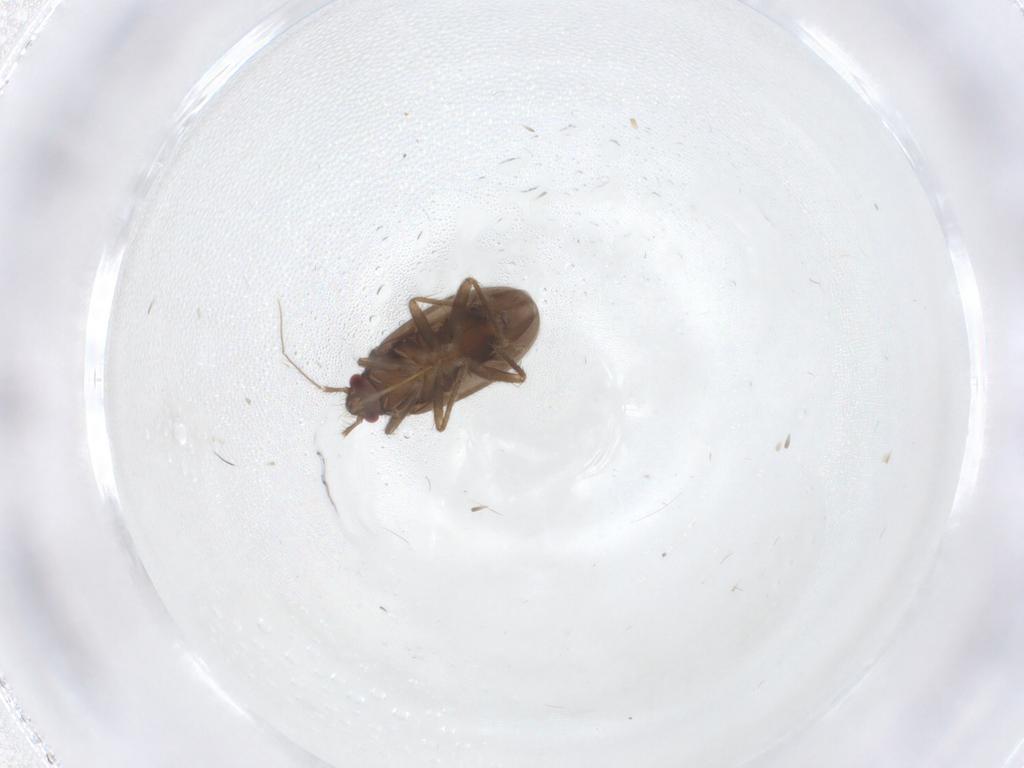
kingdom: Animalia
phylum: Arthropoda
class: Insecta
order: Hemiptera
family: Ceratocombidae
